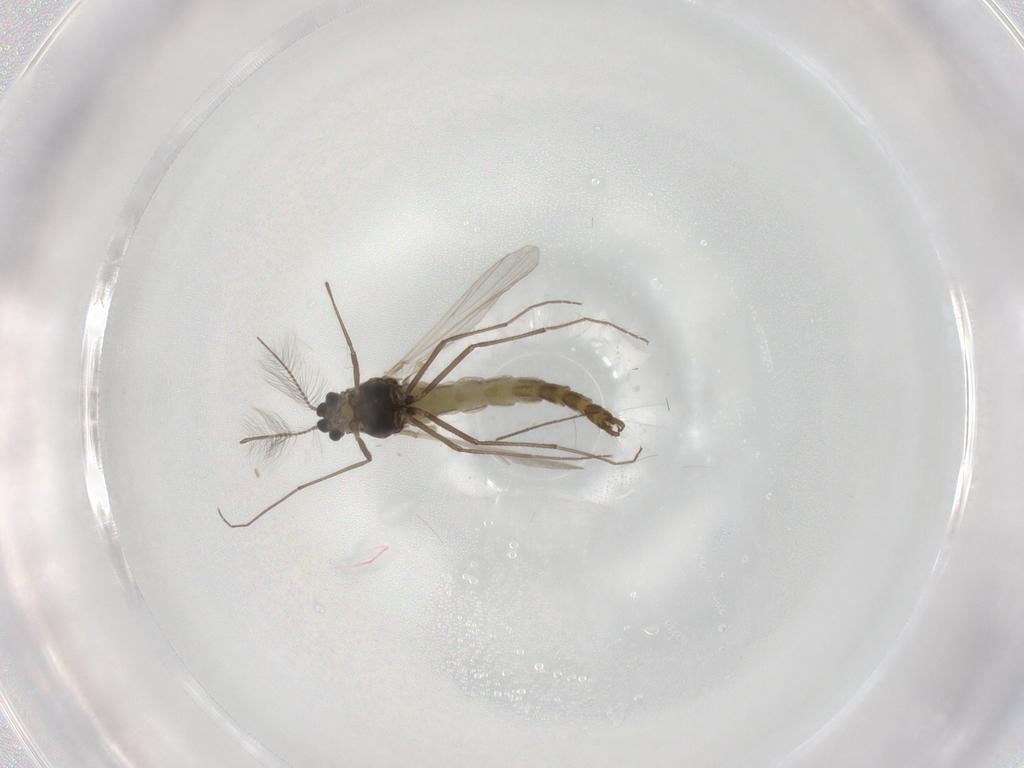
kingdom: Animalia
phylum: Arthropoda
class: Insecta
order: Diptera
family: Chironomidae
